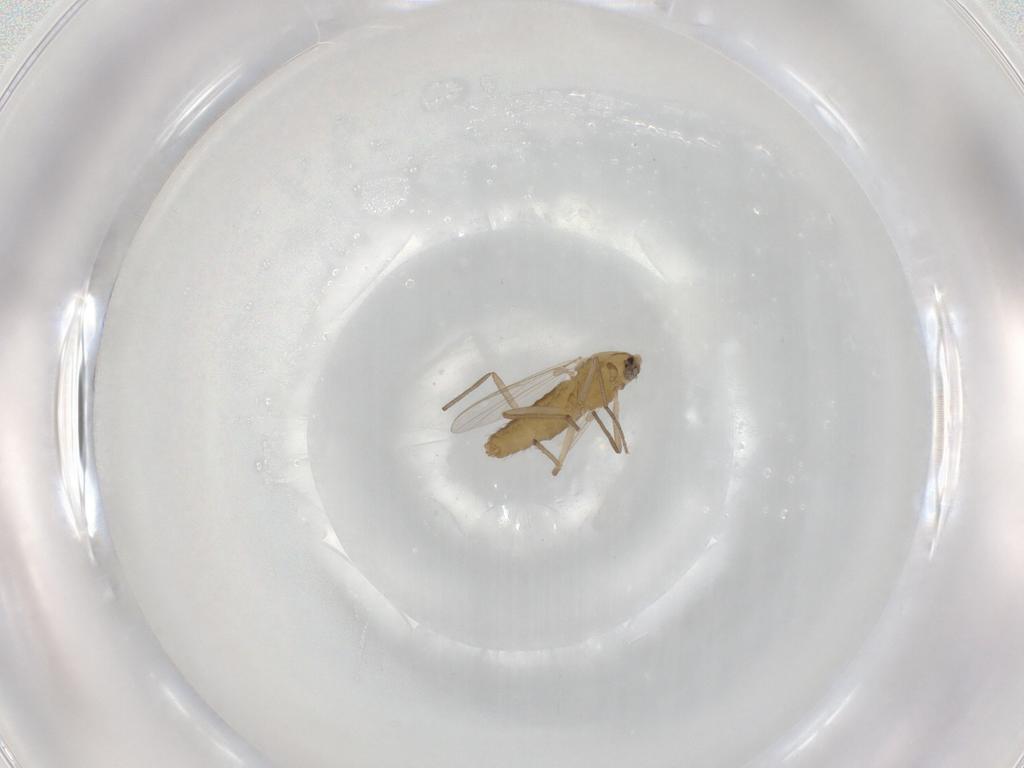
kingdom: Animalia
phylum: Arthropoda
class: Insecta
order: Diptera
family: Chironomidae
